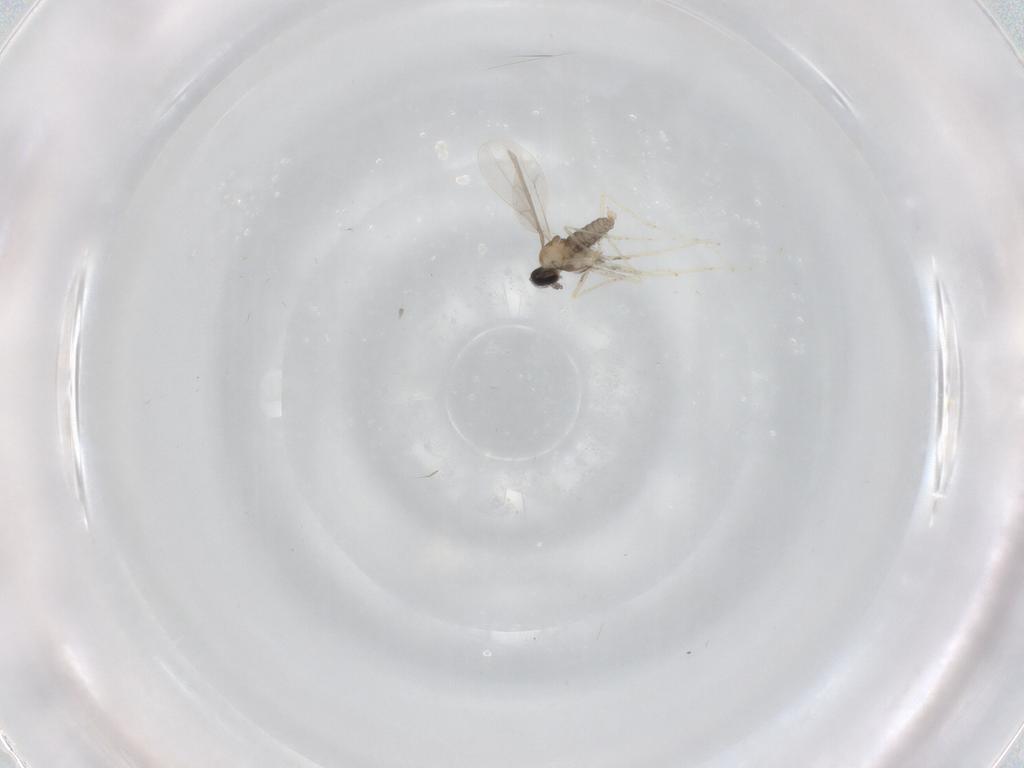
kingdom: Animalia
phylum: Arthropoda
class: Insecta
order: Diptera
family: Cecidomyiidae
